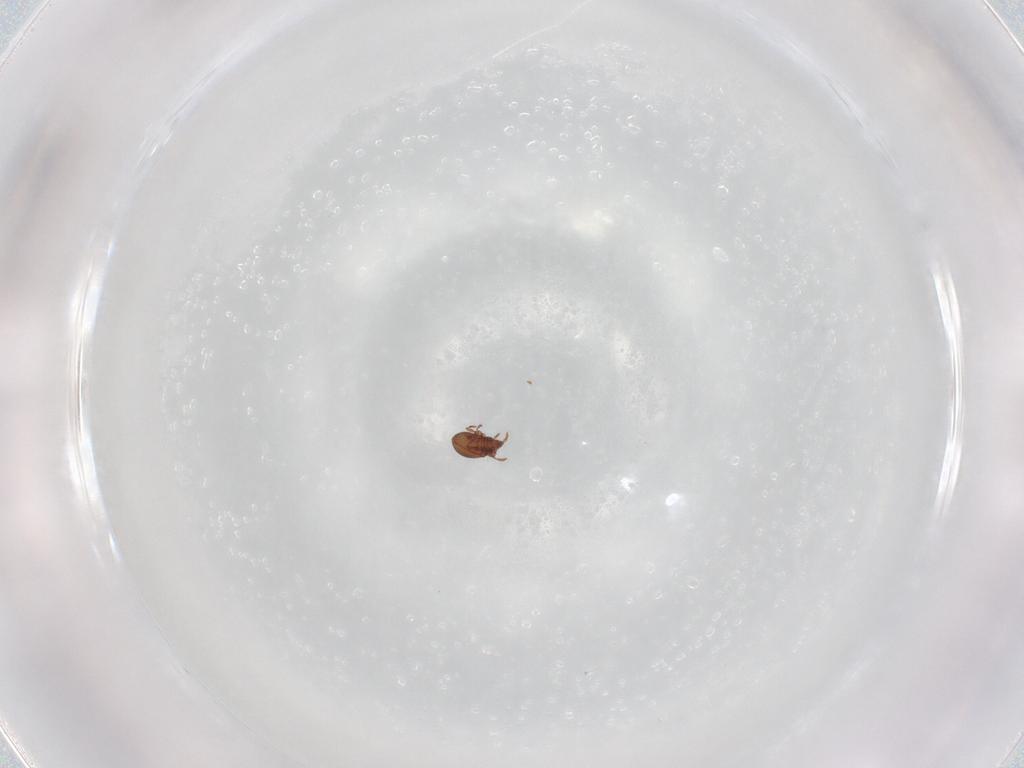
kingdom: Animalia
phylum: Arthropoda
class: Arachnida
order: Sarcoptiformes
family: Ceratoppiidae
